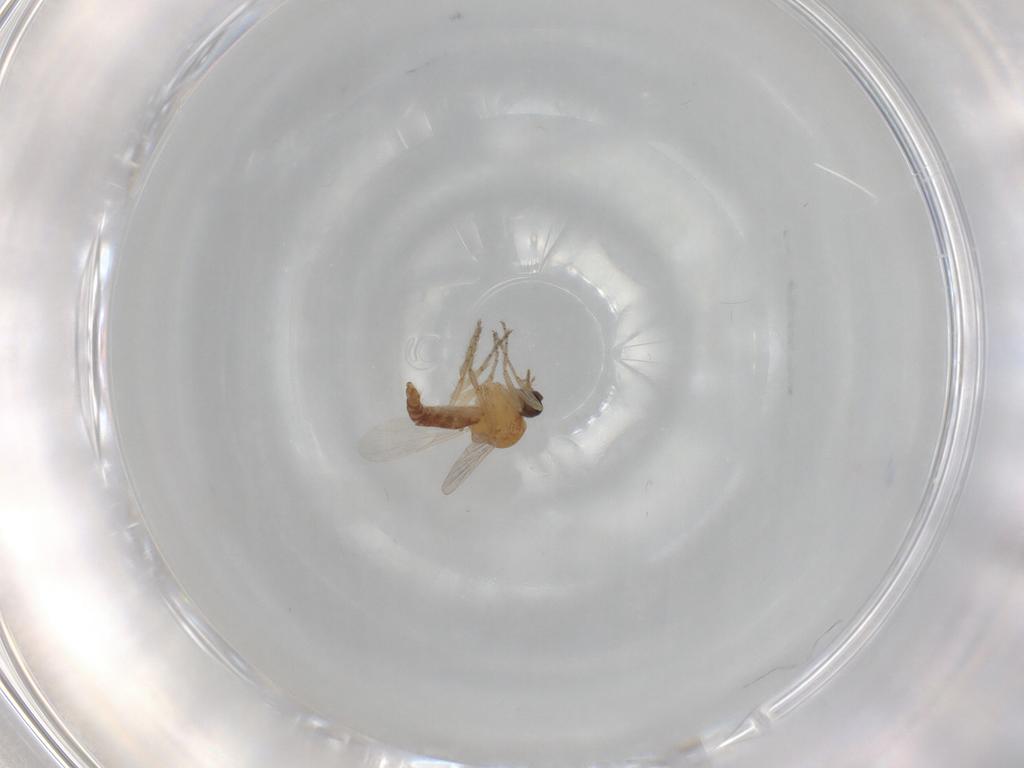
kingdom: Animalia
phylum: Arthropoda
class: Insecta
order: Diptera
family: Ceratopogonidae
